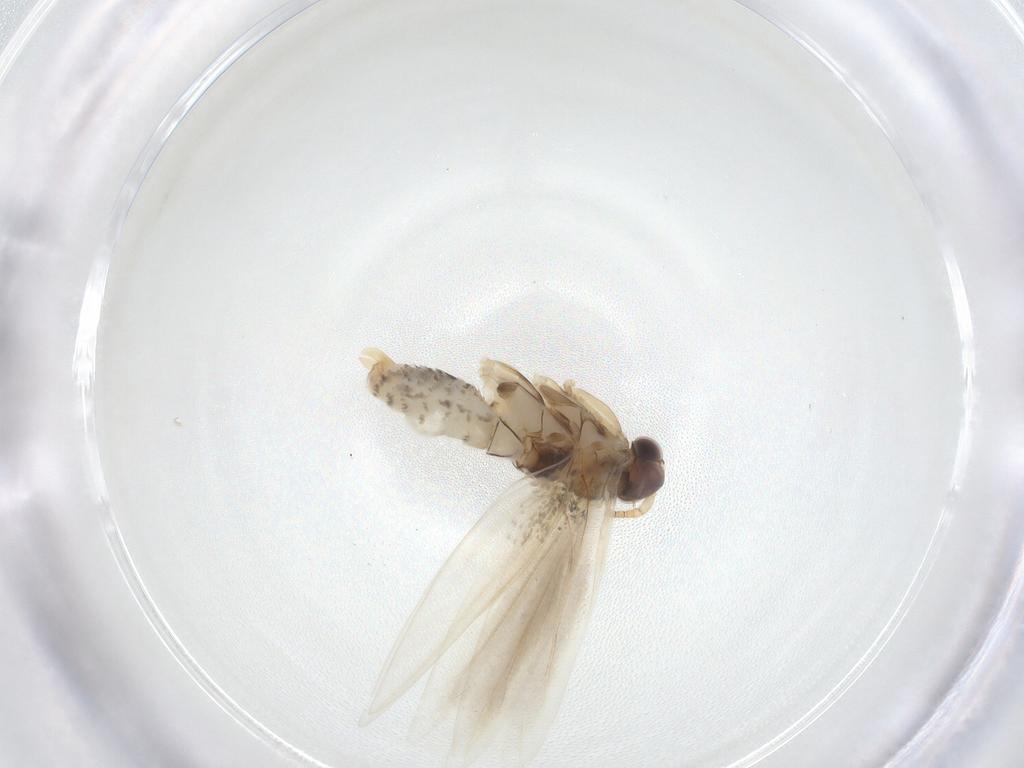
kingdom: Animalia
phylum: Arthropoda
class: Insecta
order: Lepidoptera
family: Tineidae
